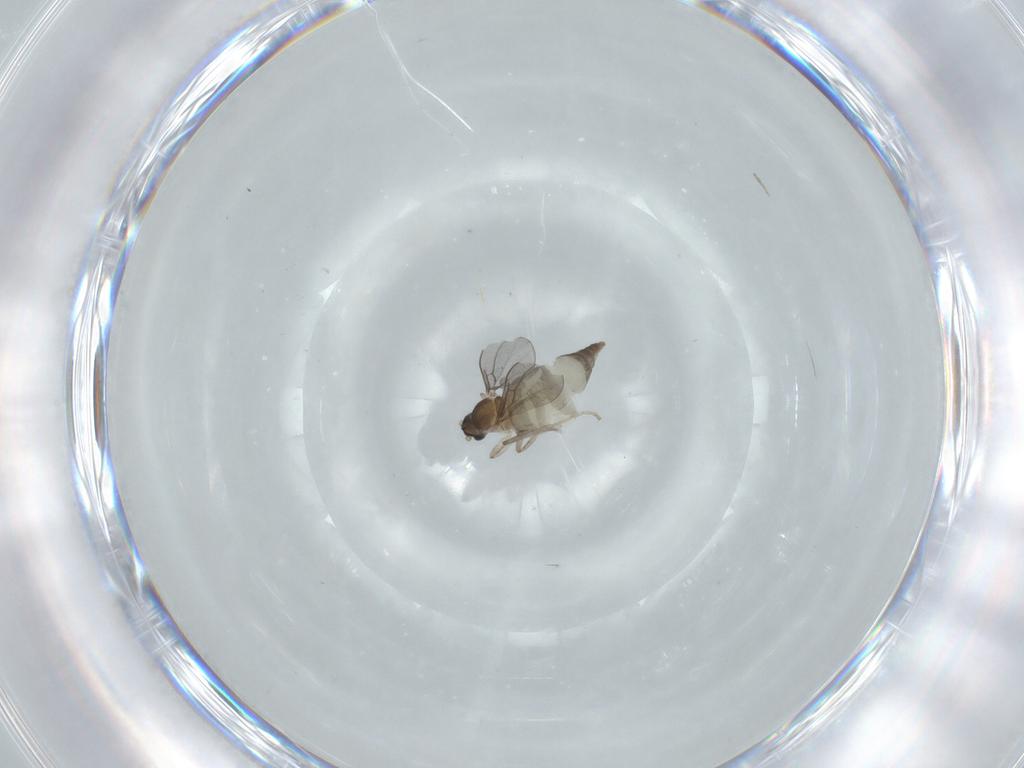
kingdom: Animalia
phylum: Arthropoda
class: Insecta
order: Diptera
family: Cecidomyiidae
